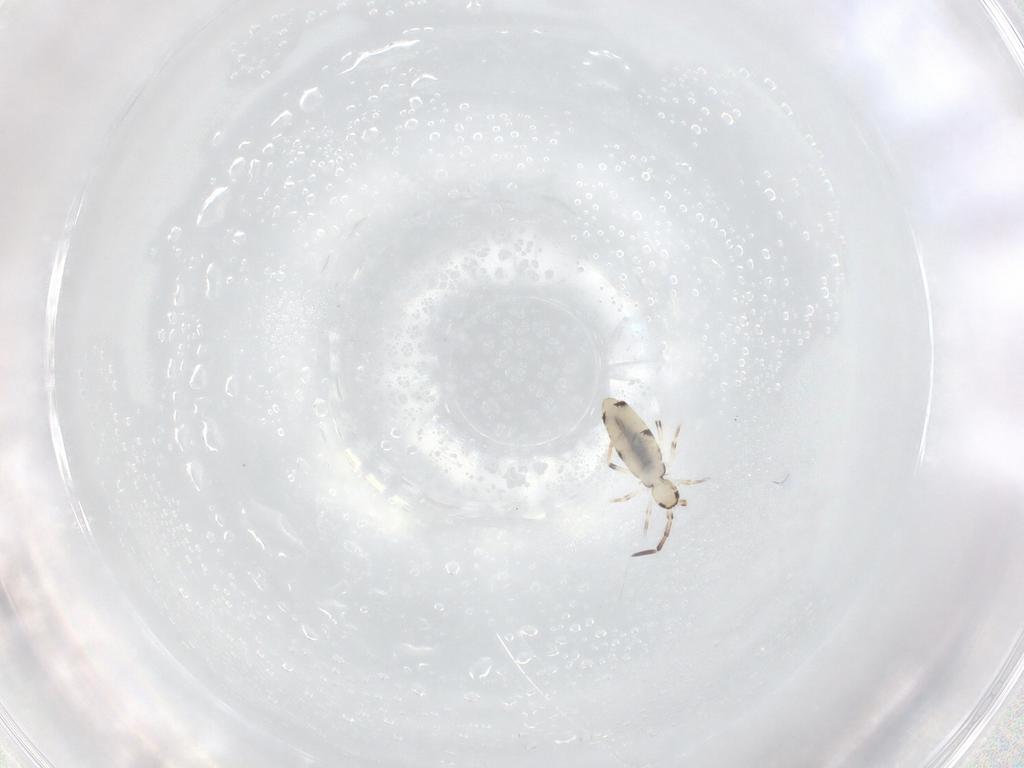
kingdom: Animalia
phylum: Arthropoda
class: Collembola
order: Entomobryomorpha
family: Entomobryidae
